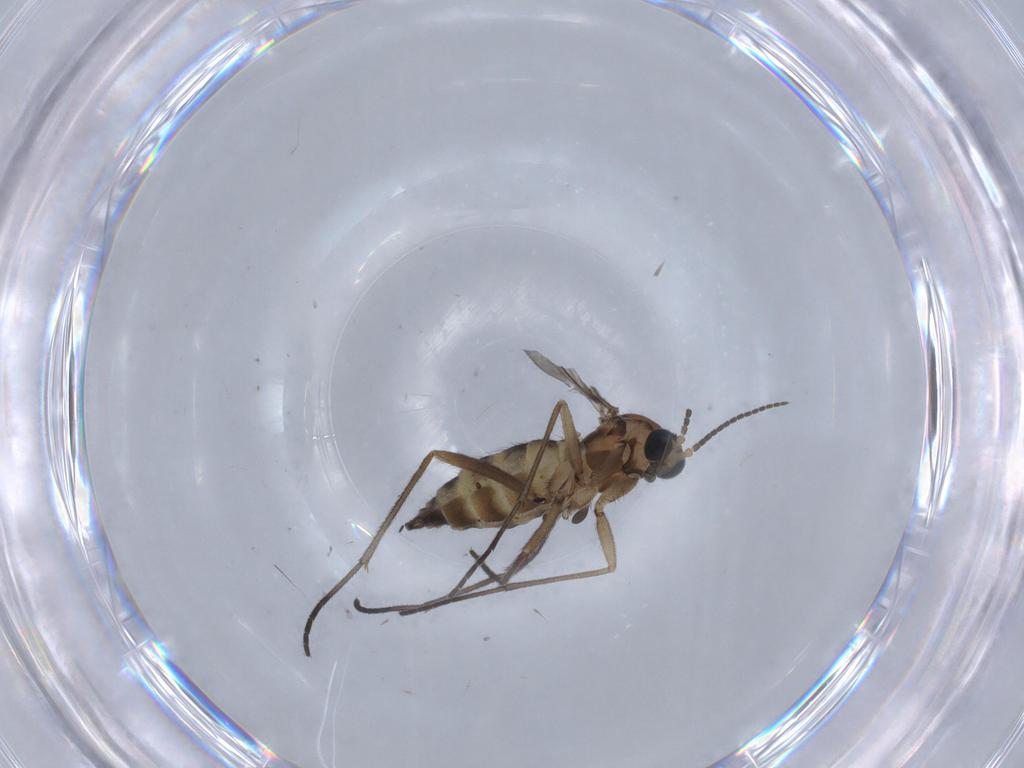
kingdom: Animalia
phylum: Arthropoda
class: Insecta
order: Diptera
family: Sciaridae
